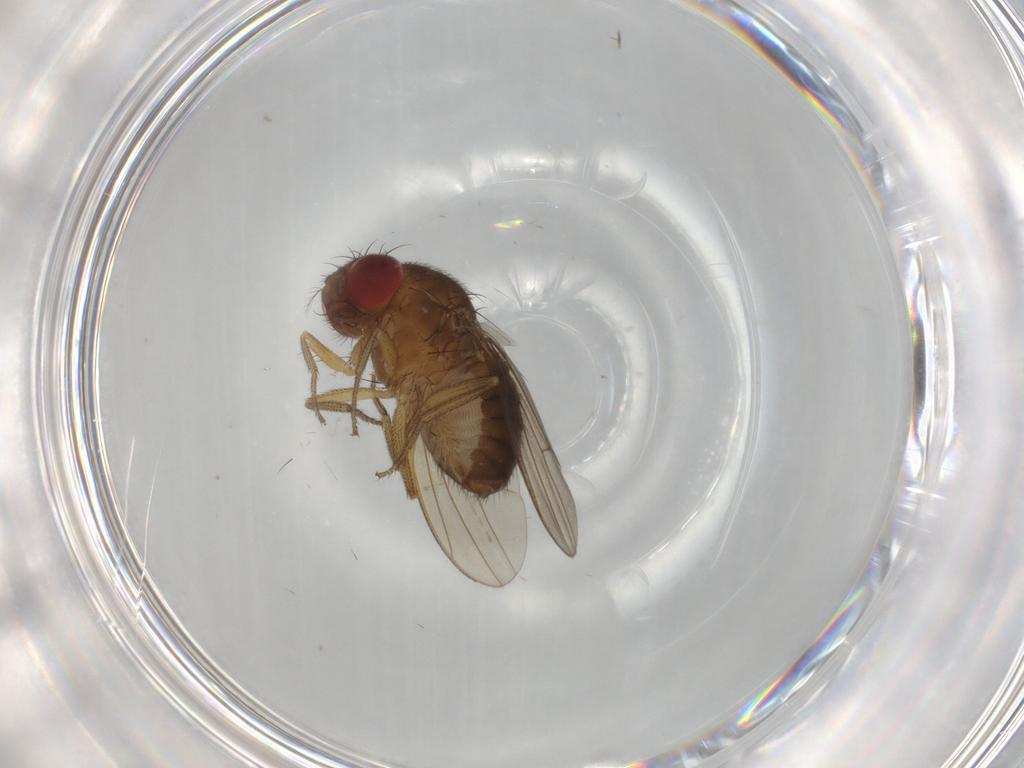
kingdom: Animalia
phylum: Arthropoda
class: Insecta
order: Diptera
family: Drosophilidae
